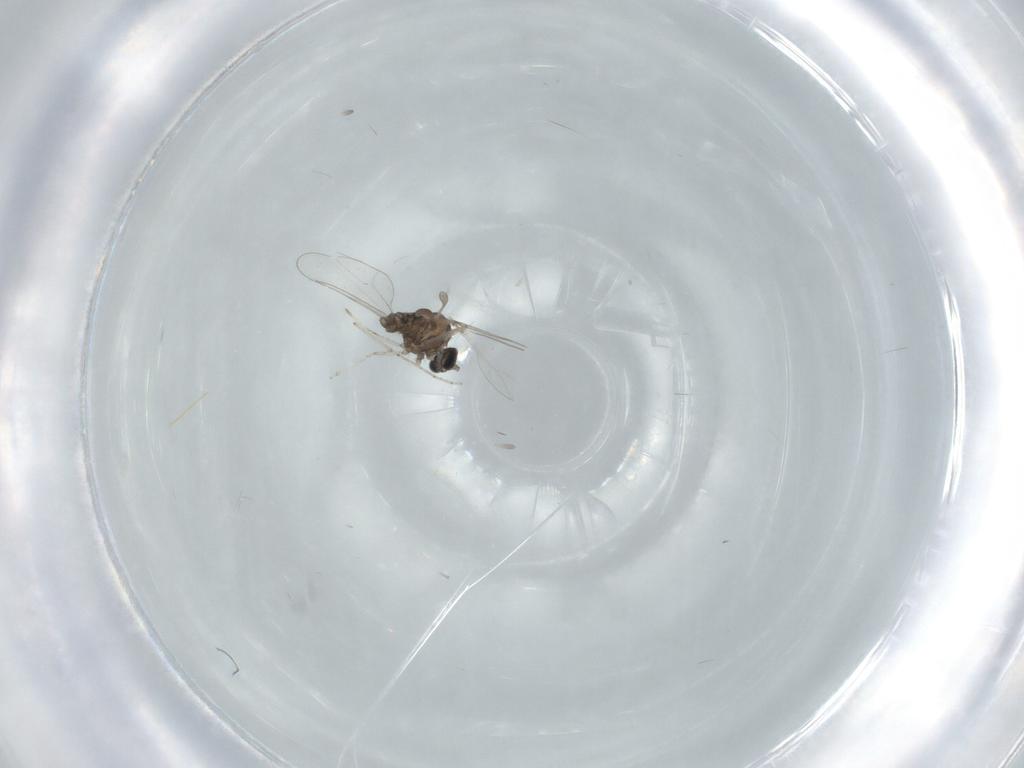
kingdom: Animalia
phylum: Arthropoda
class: Insecta
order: Diptera
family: Cecidomyiidae
